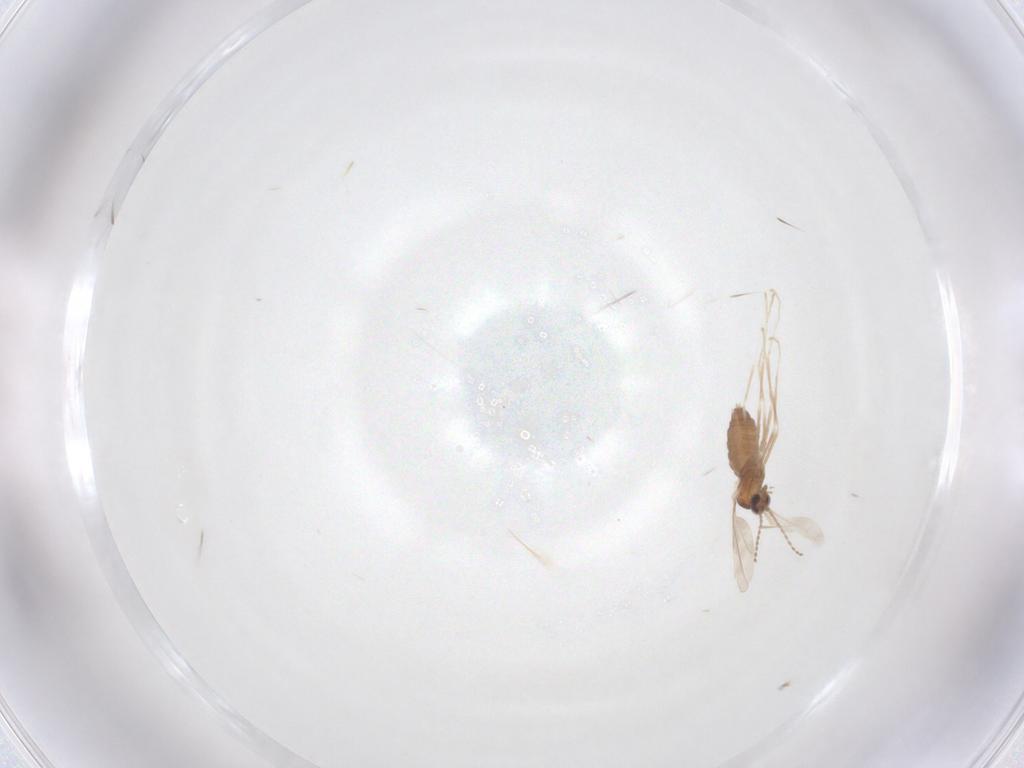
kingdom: Animalia
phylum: Arthropoda
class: Insecta
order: Diptera
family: Cecidomyiidae
